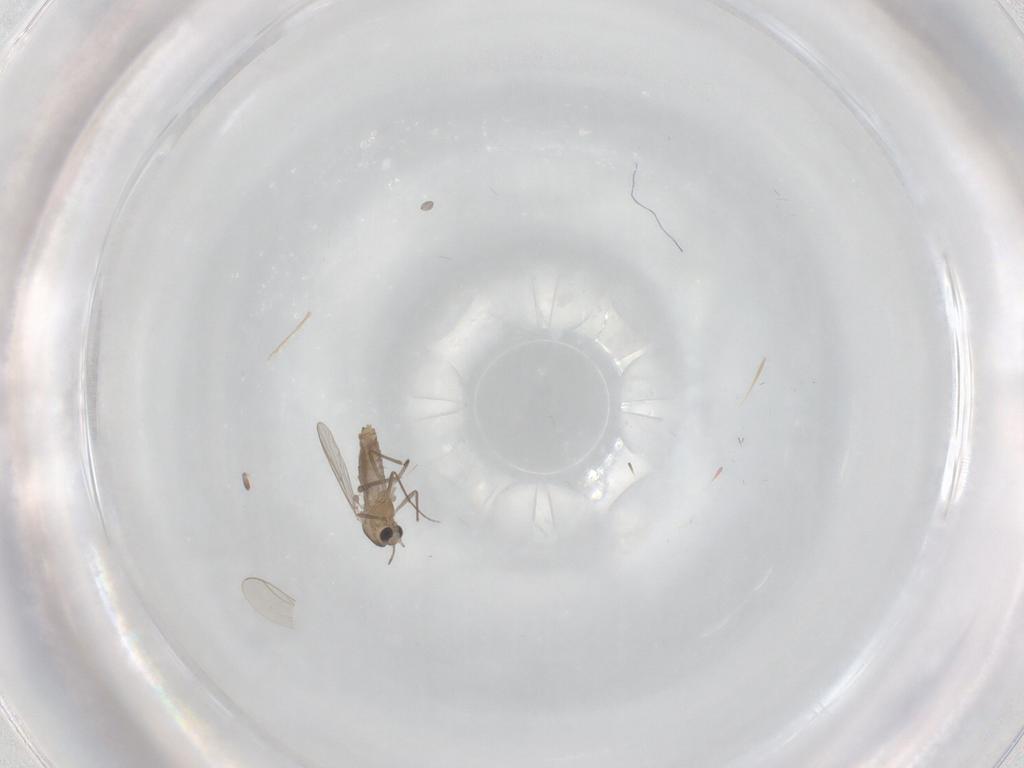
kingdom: Animalia
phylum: Arthropoda
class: Insecta
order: Diptera
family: Chironomidae
